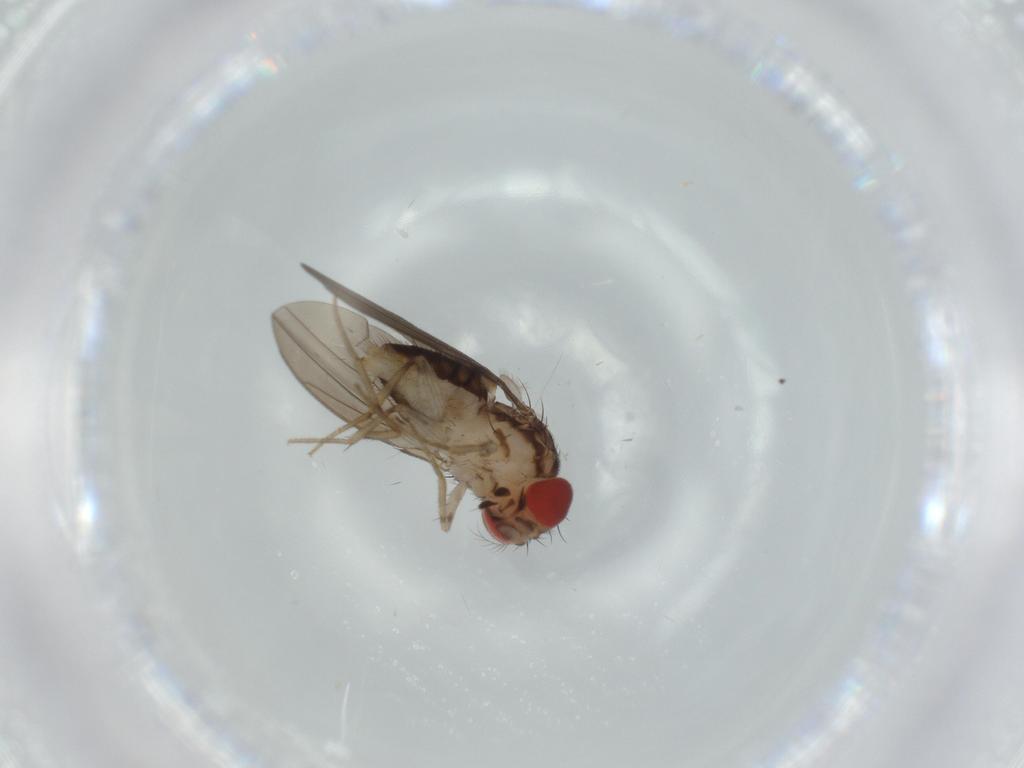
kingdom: Animalia
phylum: Arthropoda
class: Insecta
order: Diptera
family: Drosophilidae
